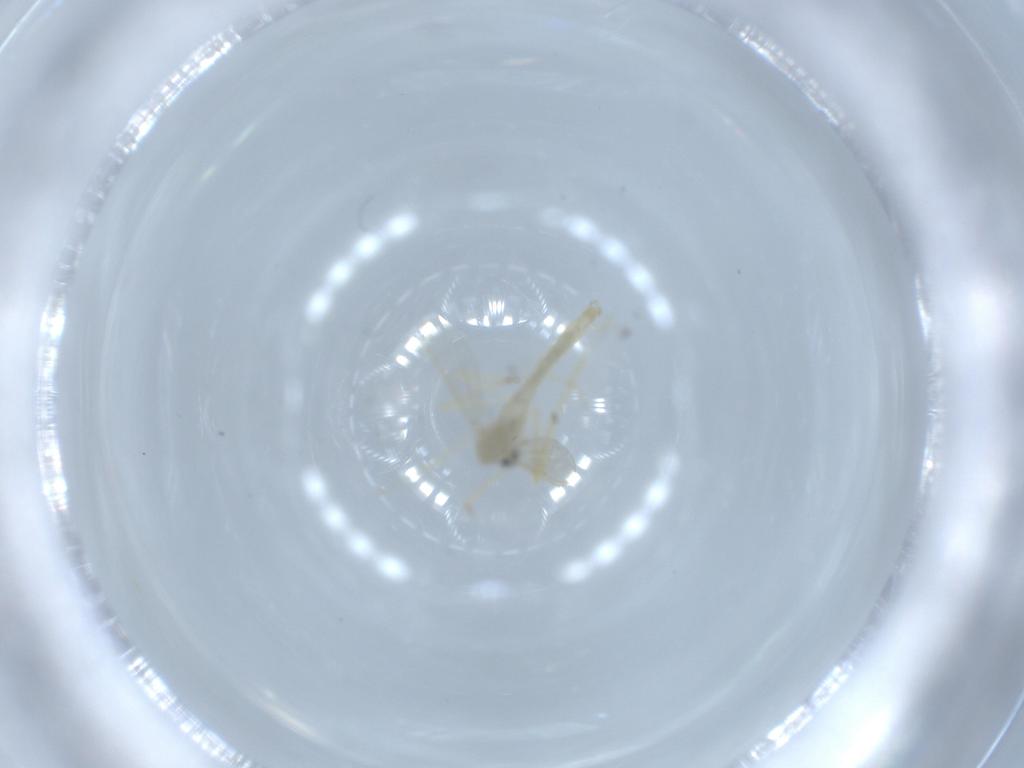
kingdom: Animalia
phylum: Arthropoda
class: Insecta
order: Diptera
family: Chironomidae
